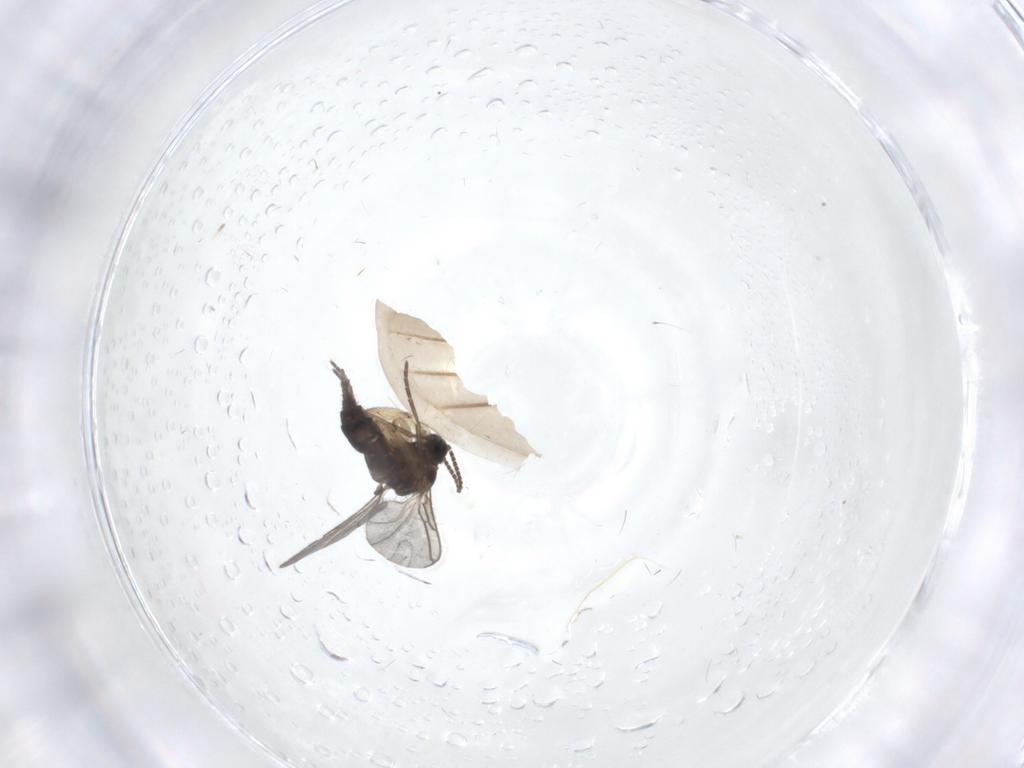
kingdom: Animalia
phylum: Arthropoda
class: Insecta
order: Diptera
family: Sciaridae
